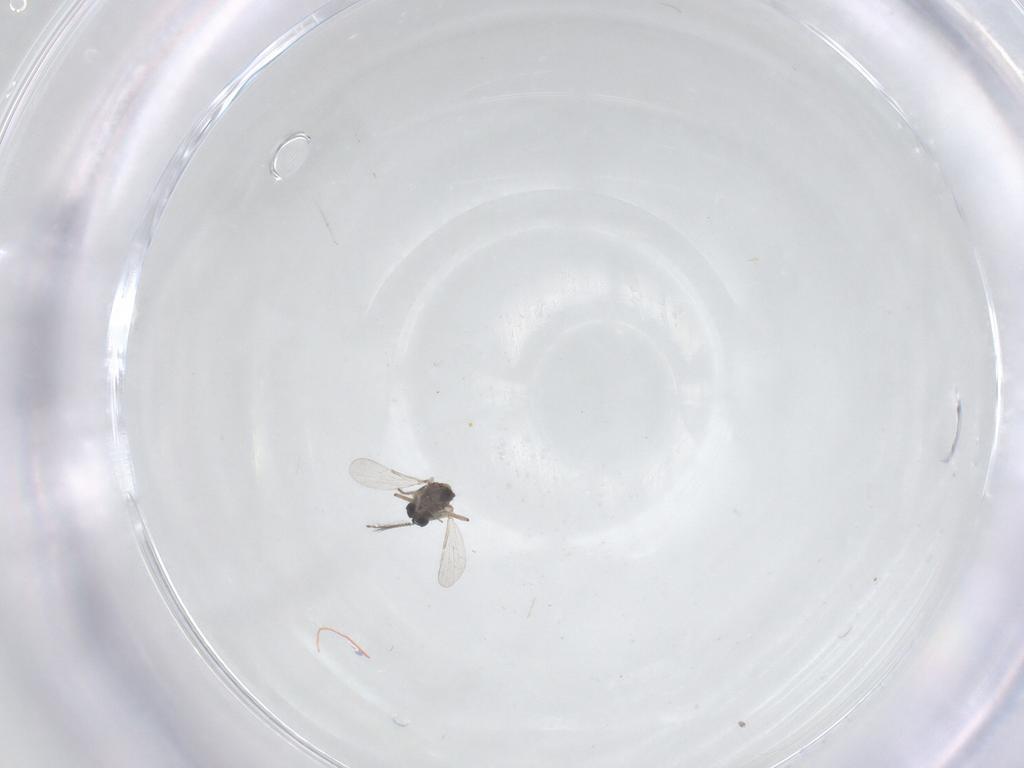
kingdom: Animalia
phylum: Arthropoda
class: Insecta
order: Diptera
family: Ceratopogonidae
